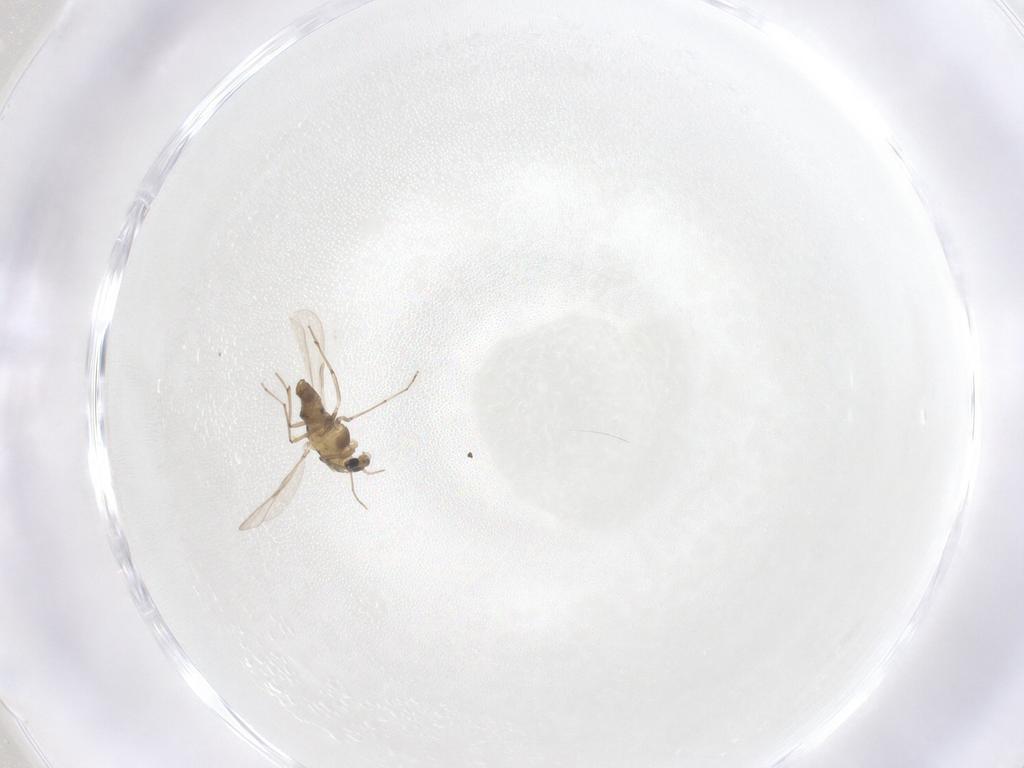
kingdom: Animalia
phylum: Arthropoda
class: Insecta
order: Diptera
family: Chironomidae
